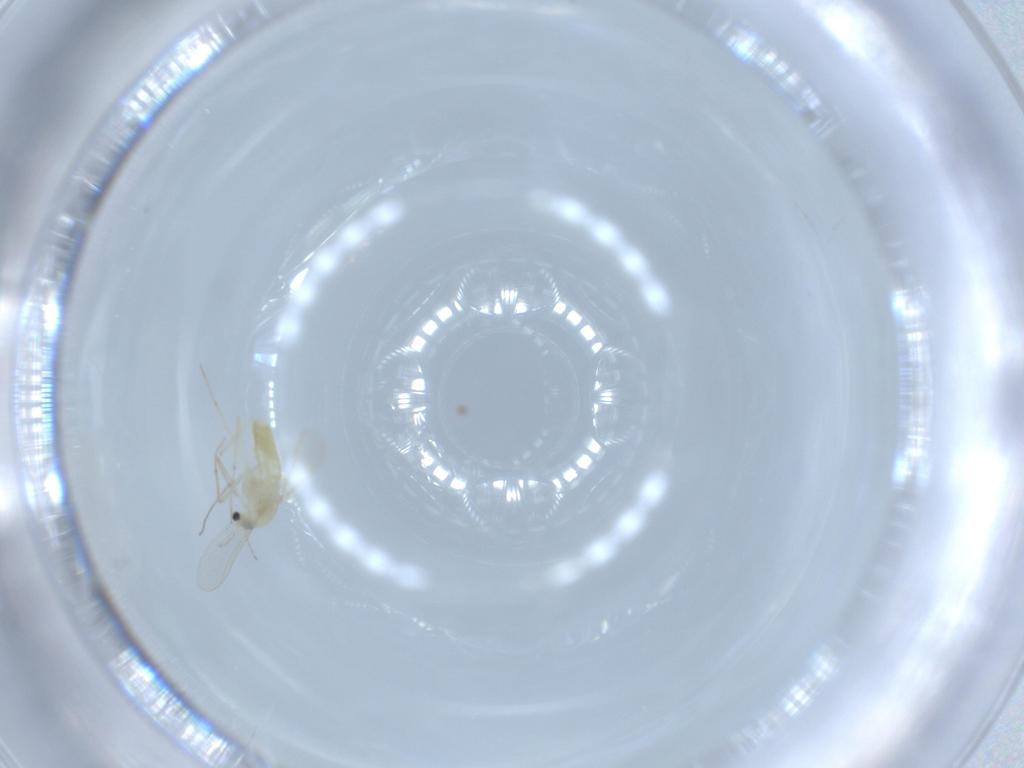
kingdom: Animalia
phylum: Arthropoda
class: Insecta
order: Diptera
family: Chironomidae
